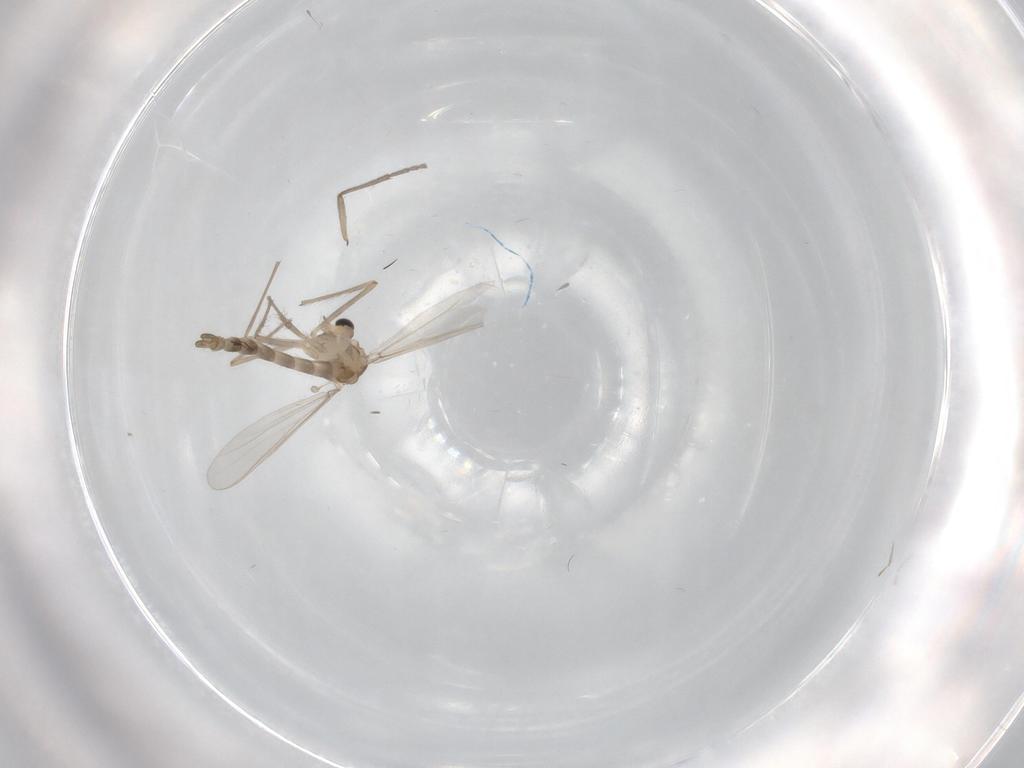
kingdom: Animalia
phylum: Arthropoda
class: Insecta
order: Diptera
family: Chironomidae
